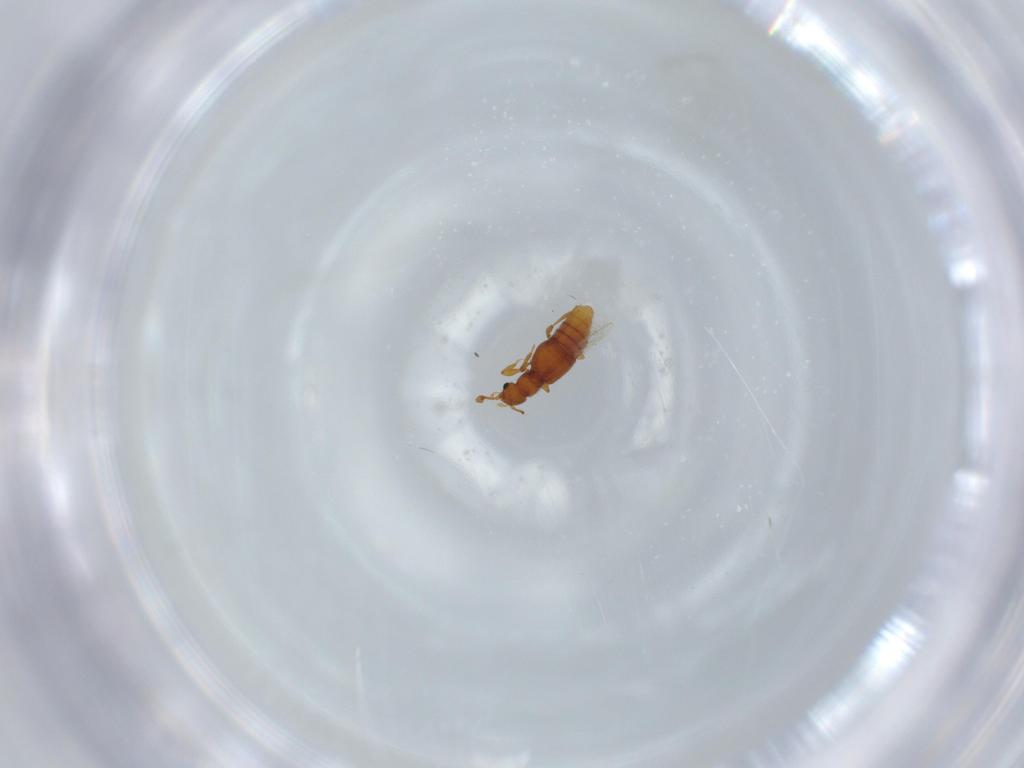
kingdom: Animalia
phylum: Arthropoda
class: Insecta
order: Coleoptera
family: Staphylinidae
